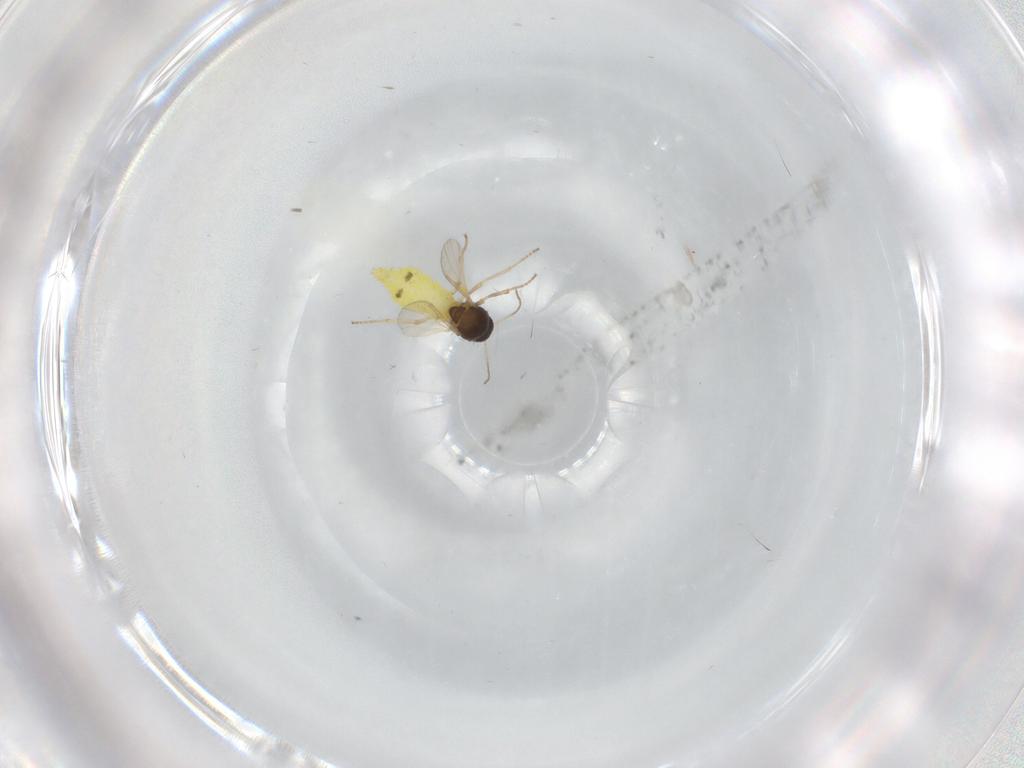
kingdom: Animalia
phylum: Arthropoda
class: Insecta
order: Diptera
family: Ceratopogonidae
